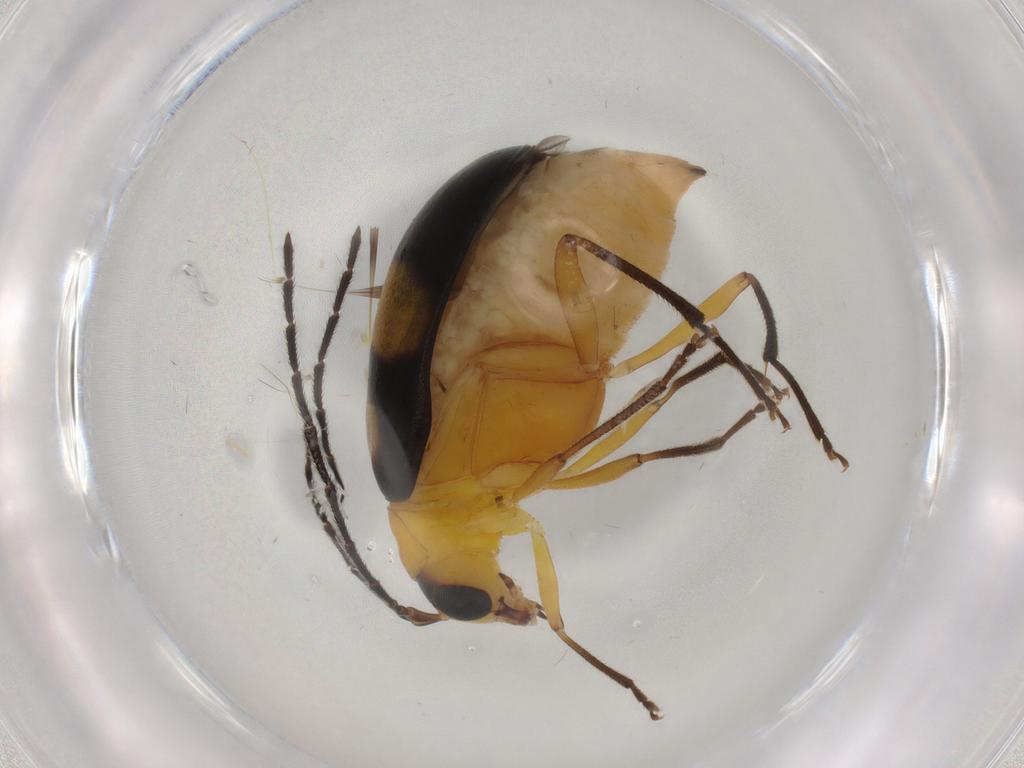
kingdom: Animalia
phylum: Arthropoda
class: Insecta
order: Coleoptera
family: Chrysomelidae
